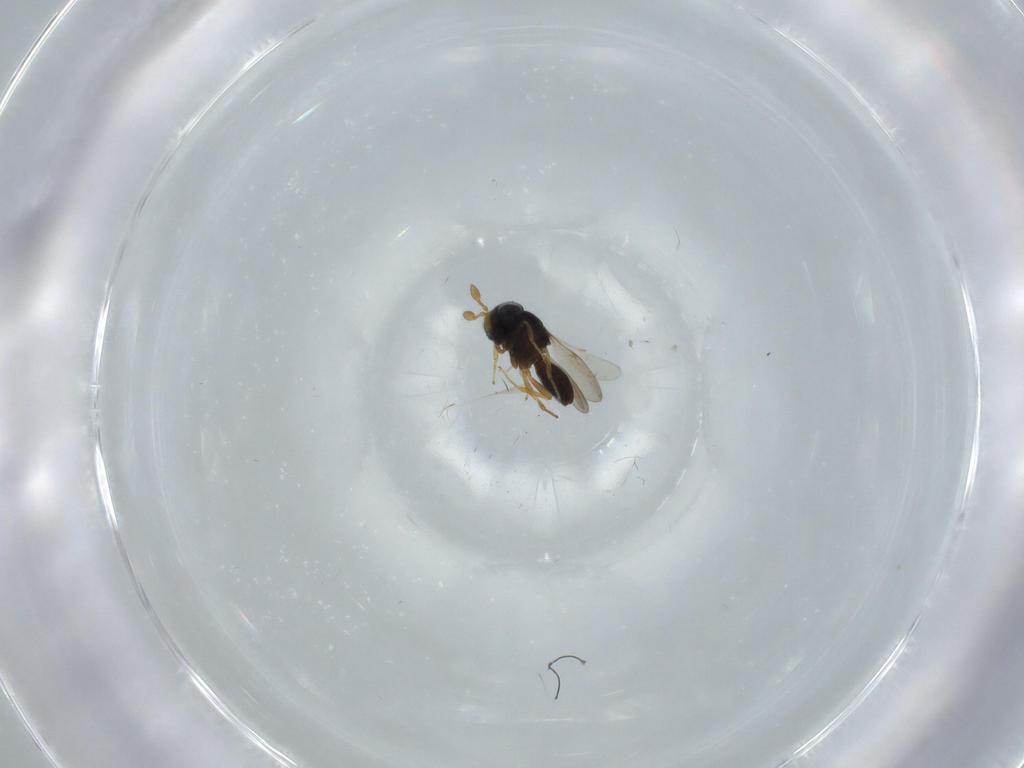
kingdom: Animalia
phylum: Arthropoda
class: Insecta
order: Hymenoptera
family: Scelionidae
